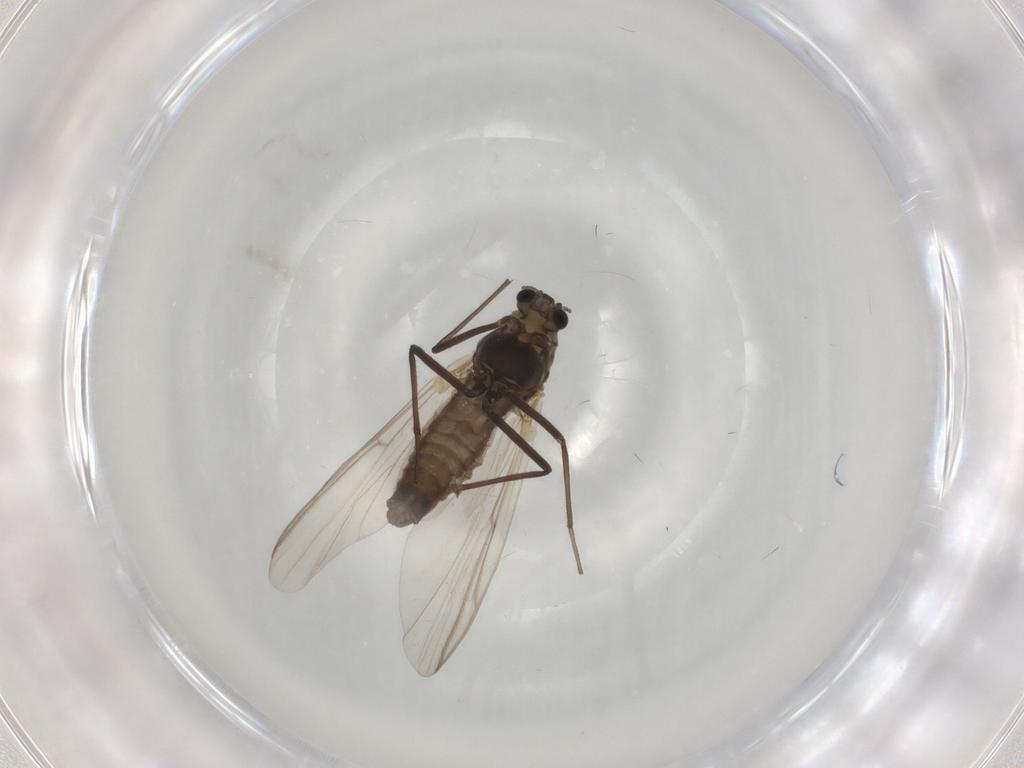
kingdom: Animalia
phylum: Arthropoda
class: Insecta
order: Diptera
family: Chironomidae
